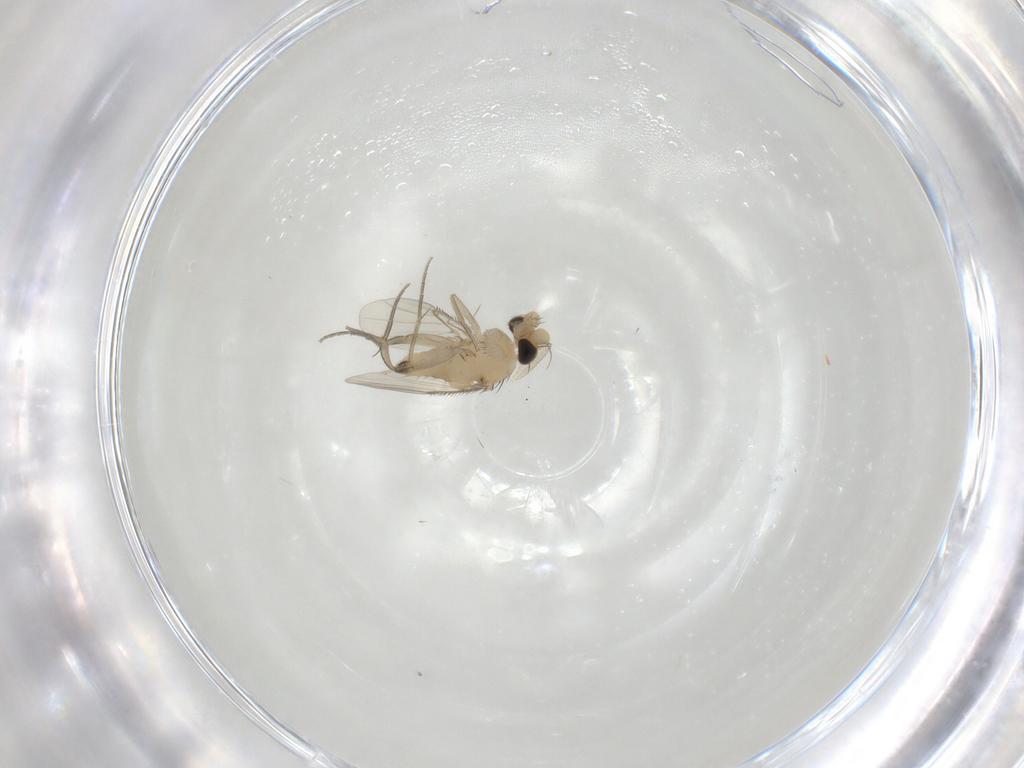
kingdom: Animalia
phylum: Arthropoda
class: Insecta
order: Diptera
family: Phoridae
